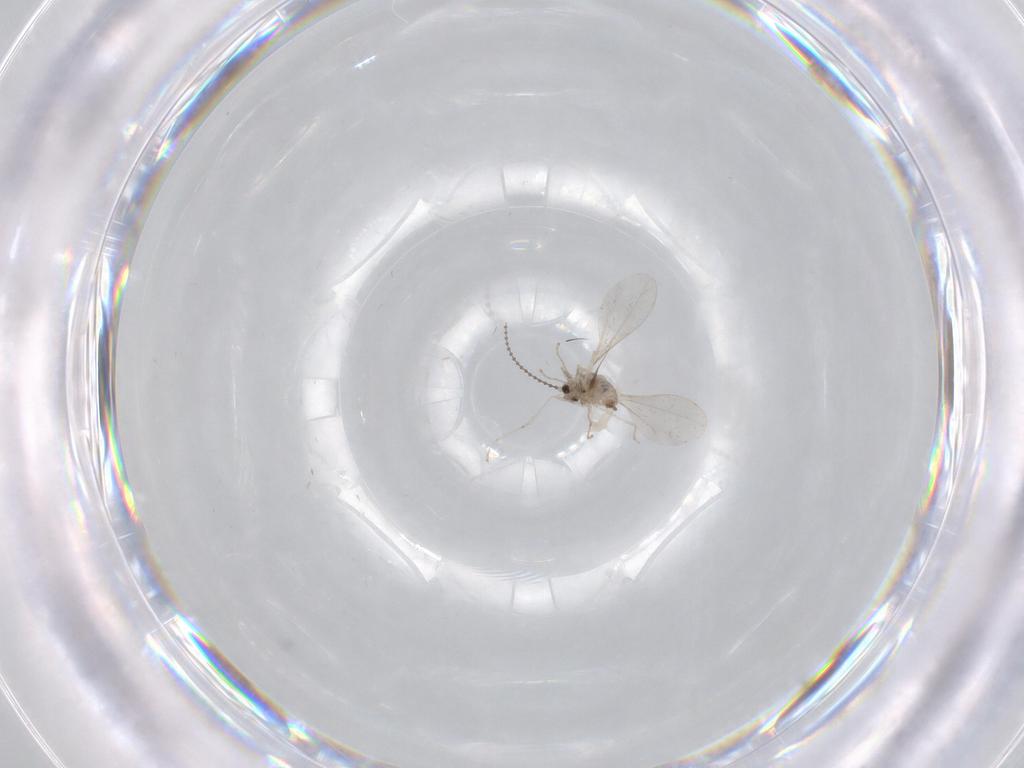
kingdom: Animalia
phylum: Arthropoda
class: Insecta
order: Diptera
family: Cecidomyiidae
